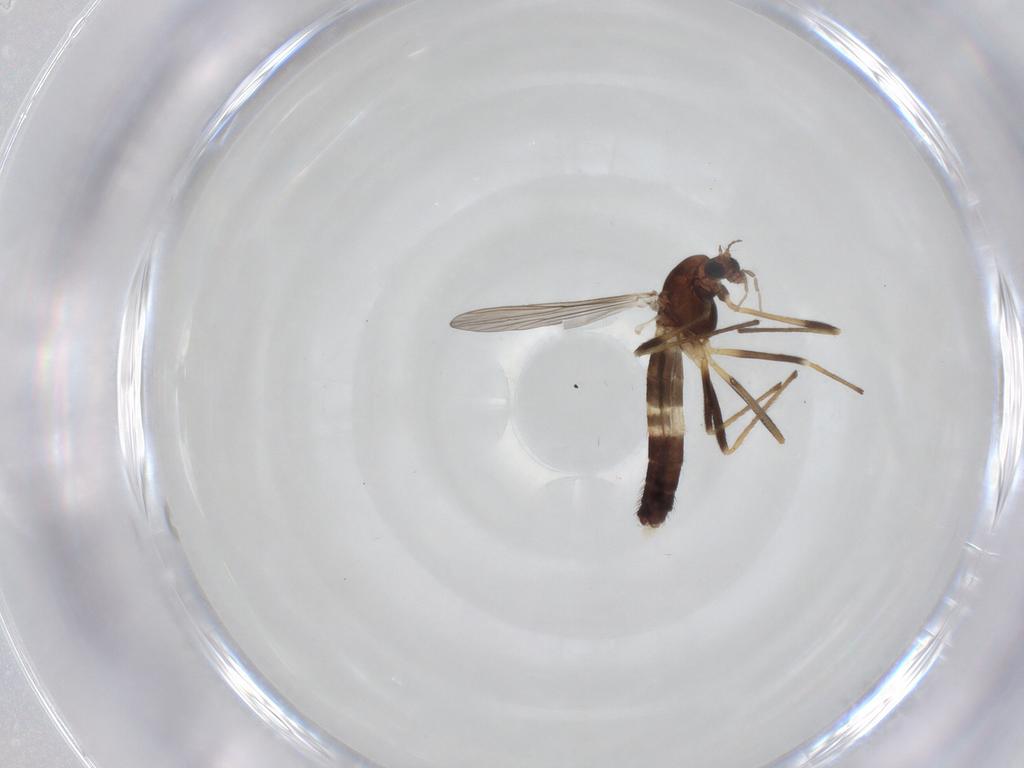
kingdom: Animalia
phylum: Arthropoda
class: Insecta
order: Diptera
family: Chironomidae
